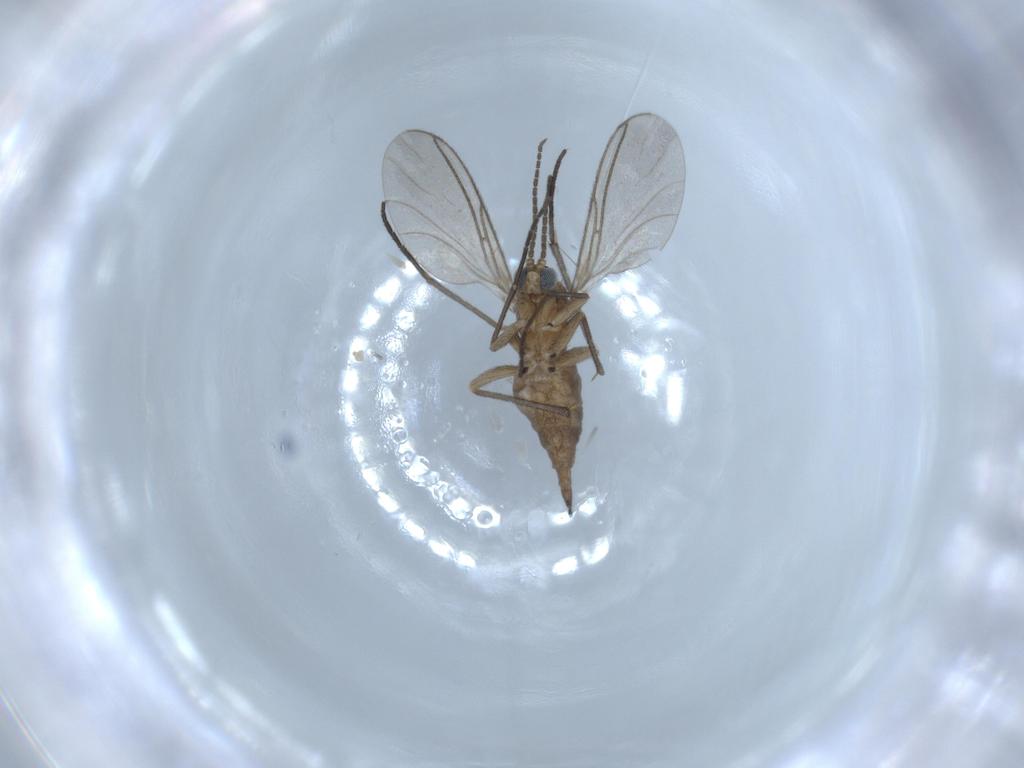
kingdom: Animalia
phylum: Arthropoda
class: Insecta
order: Diptera
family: Sciaridae
